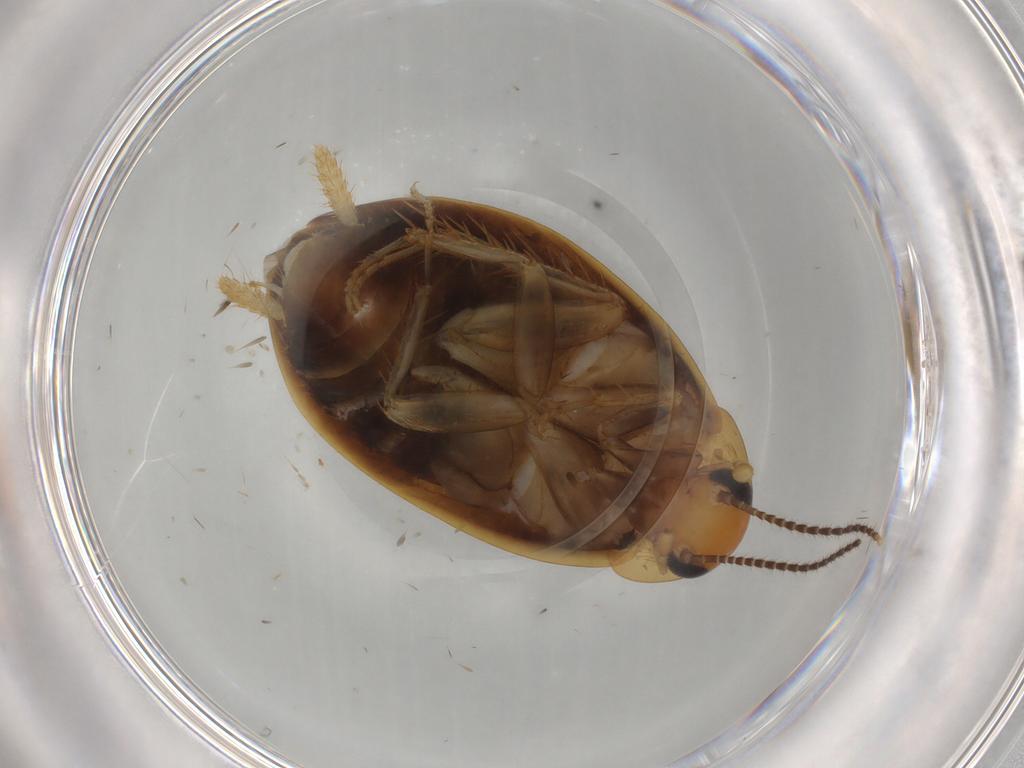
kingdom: Animalia
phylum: Arthropoda
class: Insecta
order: Blattodea
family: Tryonicidae
